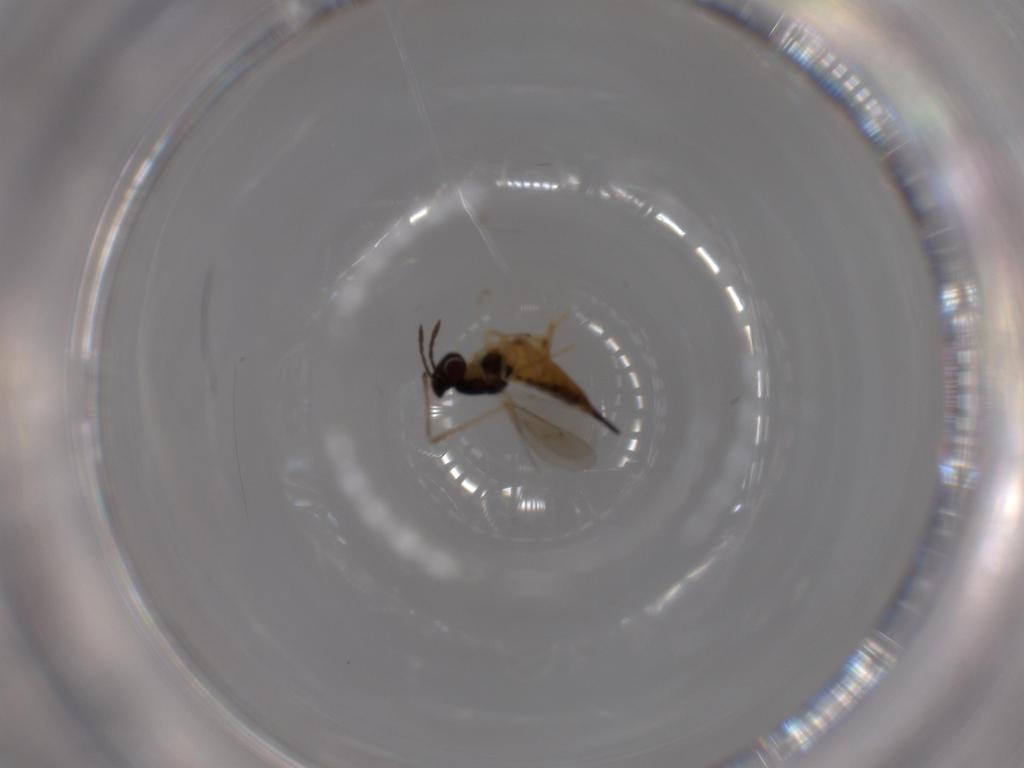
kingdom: Animalia
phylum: Arthropoda
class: Insecta
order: Hymenoptera
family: Eulophidae
